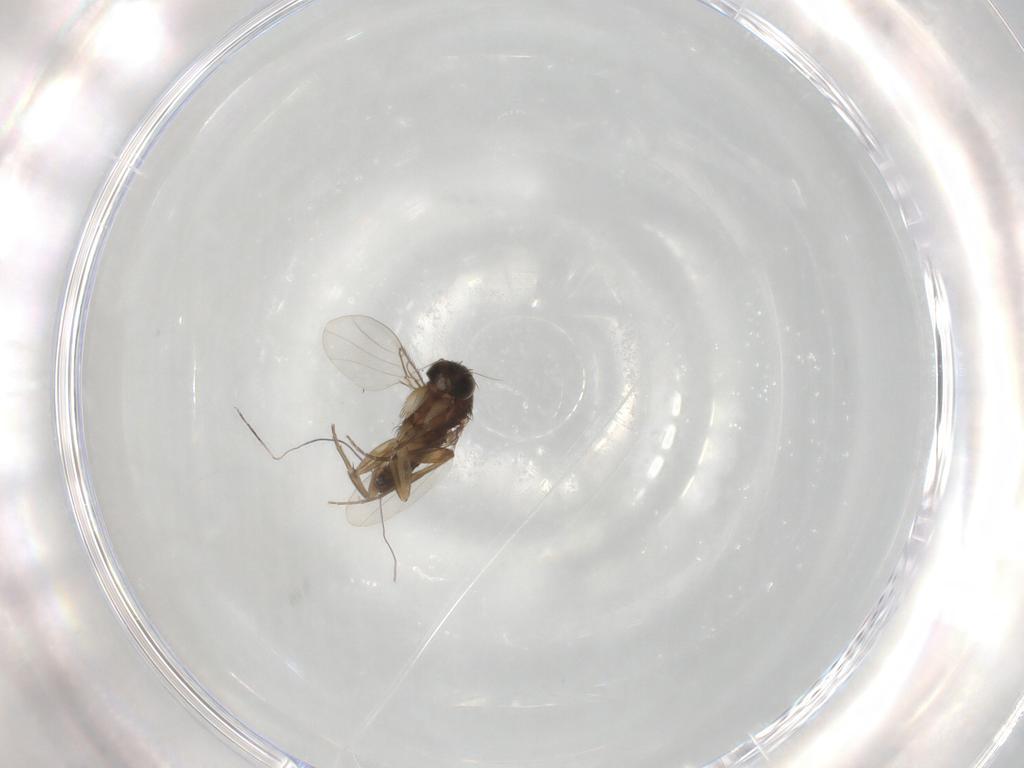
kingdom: Animalia
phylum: Arthropoda
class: Insecta
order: Diptera
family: Phoridae
